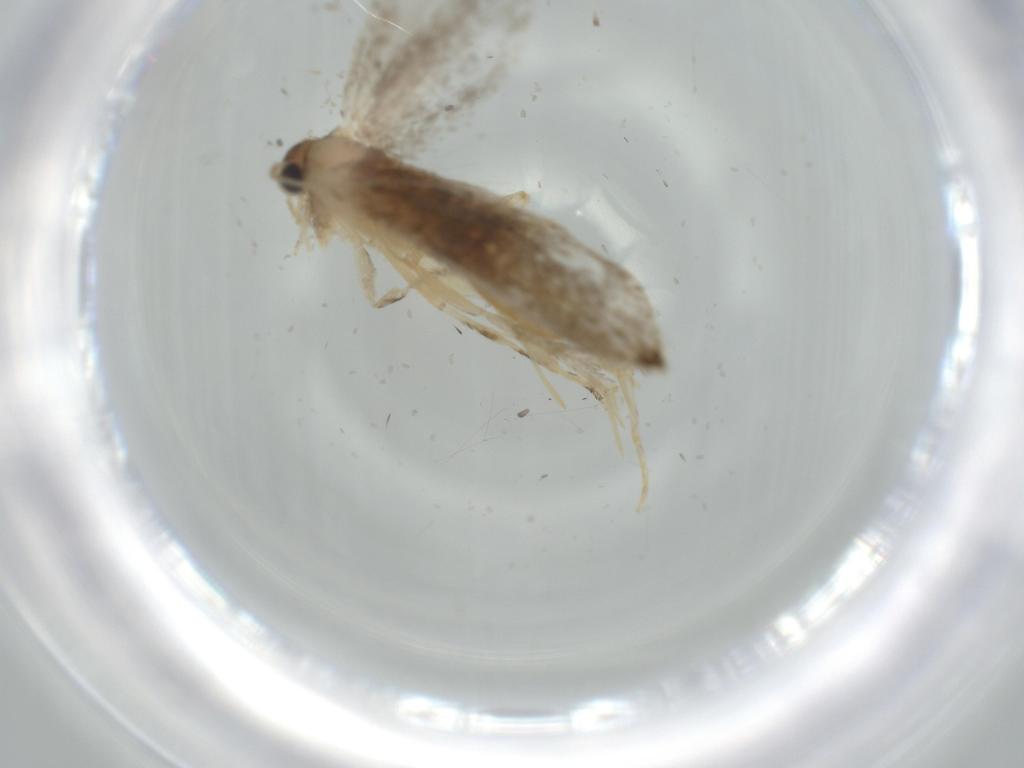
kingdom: Animalia
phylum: Arthropoda
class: Insecta
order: Lepidoptera
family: Tineidae
